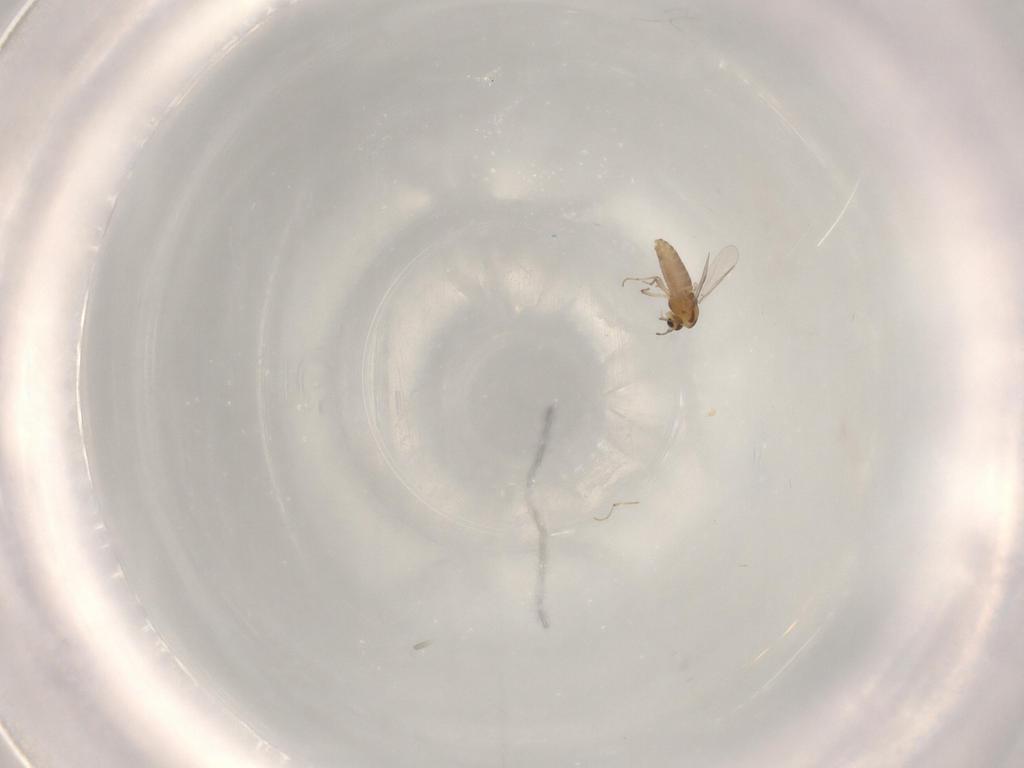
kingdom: Animalia
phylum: Arthropoda
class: Insecta
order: Diptera
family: Chironomidae
